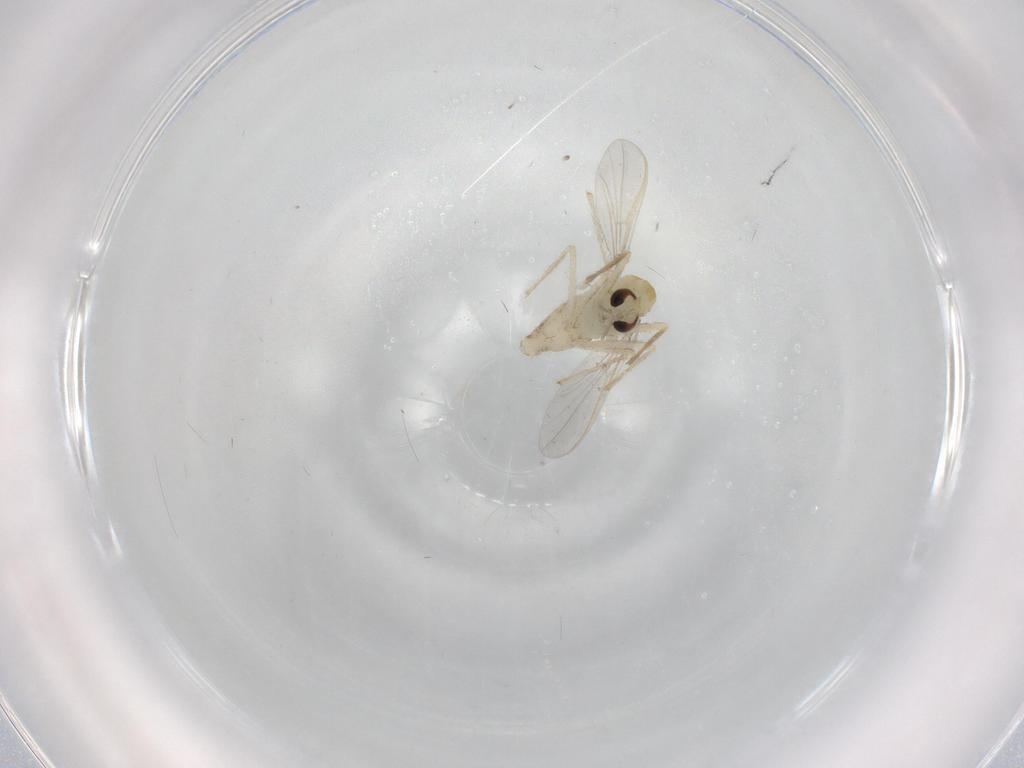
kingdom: Animalia
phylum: Arthropoda
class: Insecta
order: Diptera
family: Chironomidae
